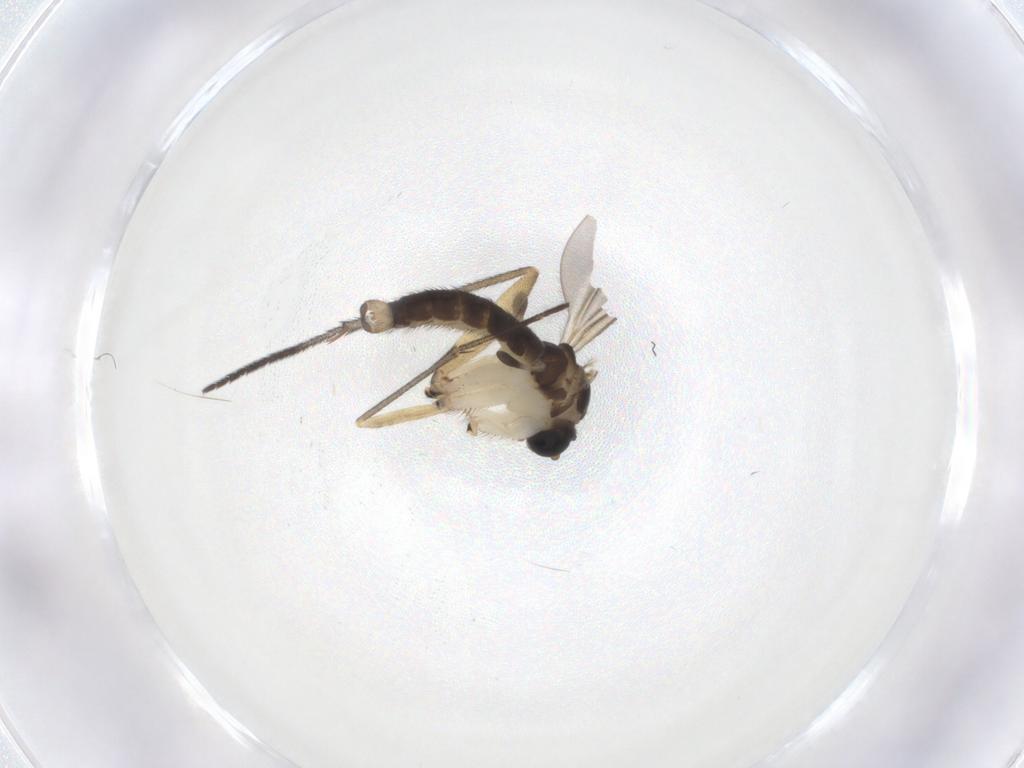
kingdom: Animalia
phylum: Arthropoda
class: Insecta
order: Diptera
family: Sciaridae
